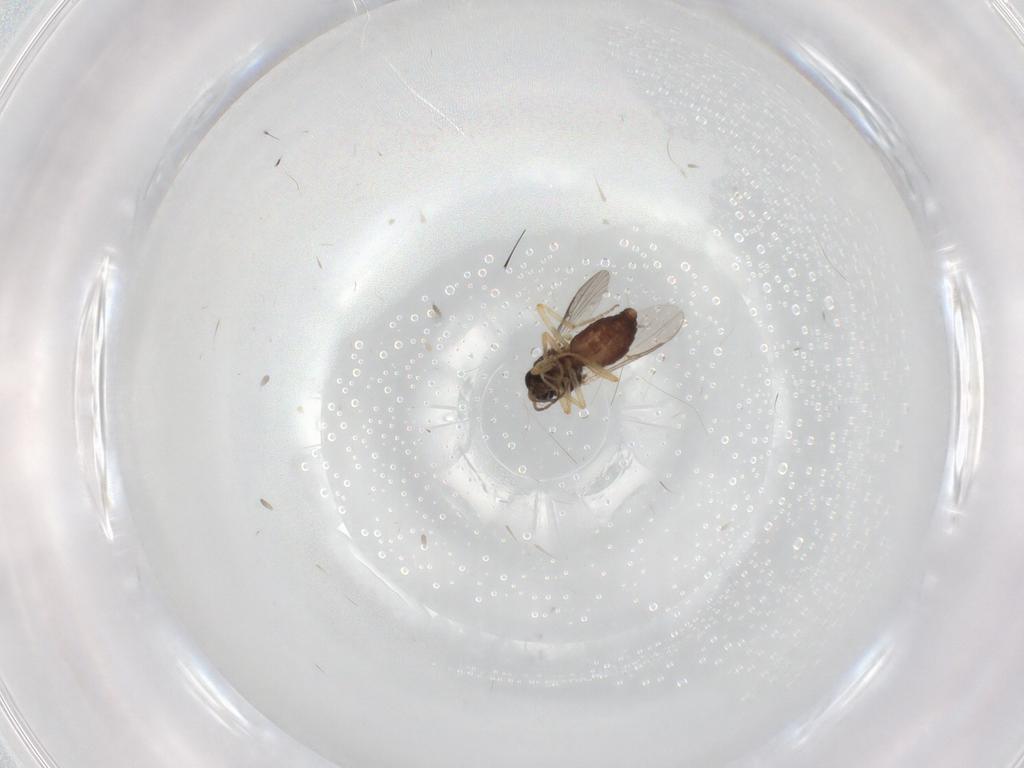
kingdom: Animalia
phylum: Arthropoda
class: Insecta
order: Diptera
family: Ceratopogonidae
